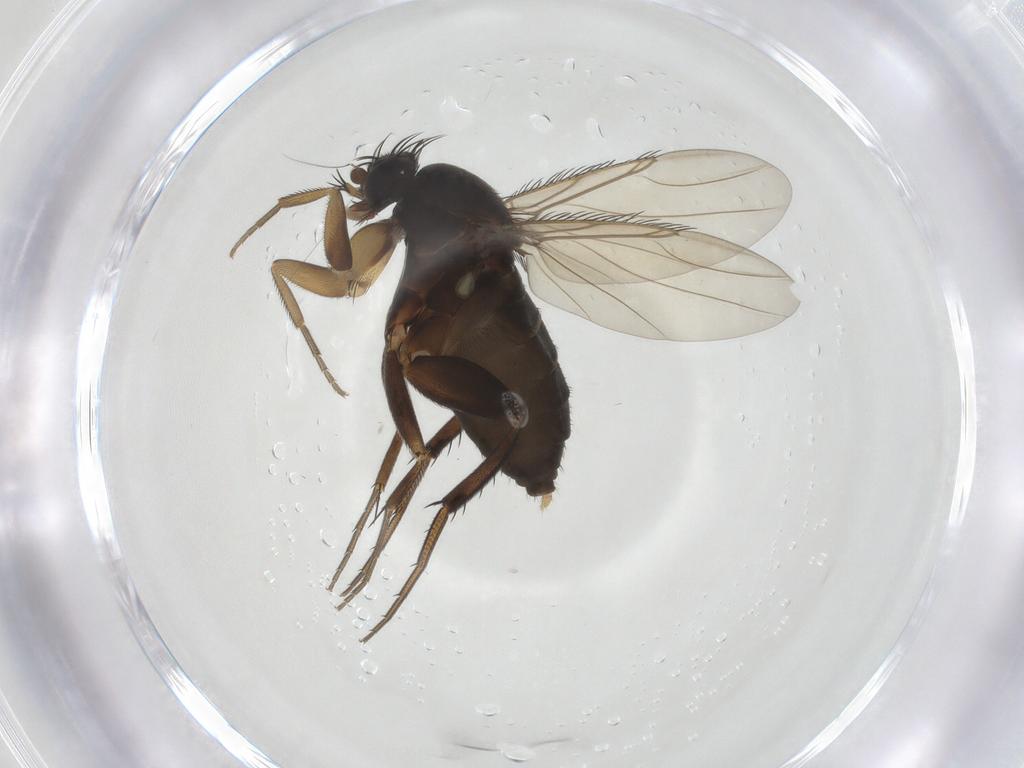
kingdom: Animalia
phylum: Arthropoda
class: Insecta
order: Diptera
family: Phoridae
